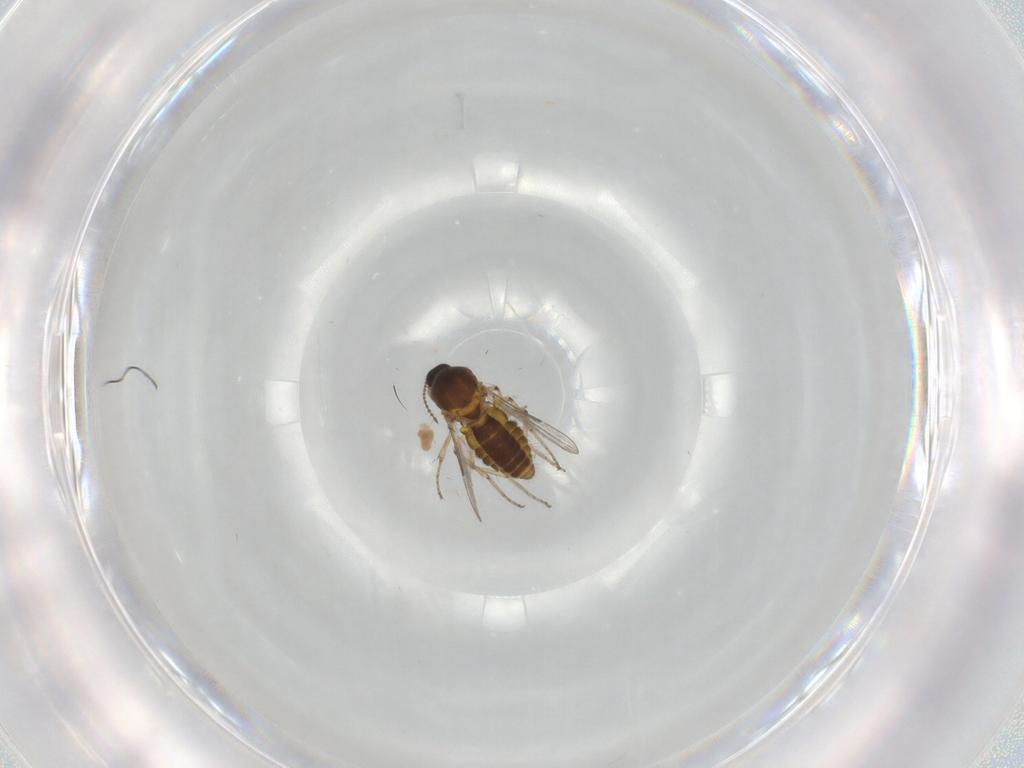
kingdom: Animalia
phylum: Arthropoda
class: Insecta
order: Diptera
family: Ceratopogonidae
